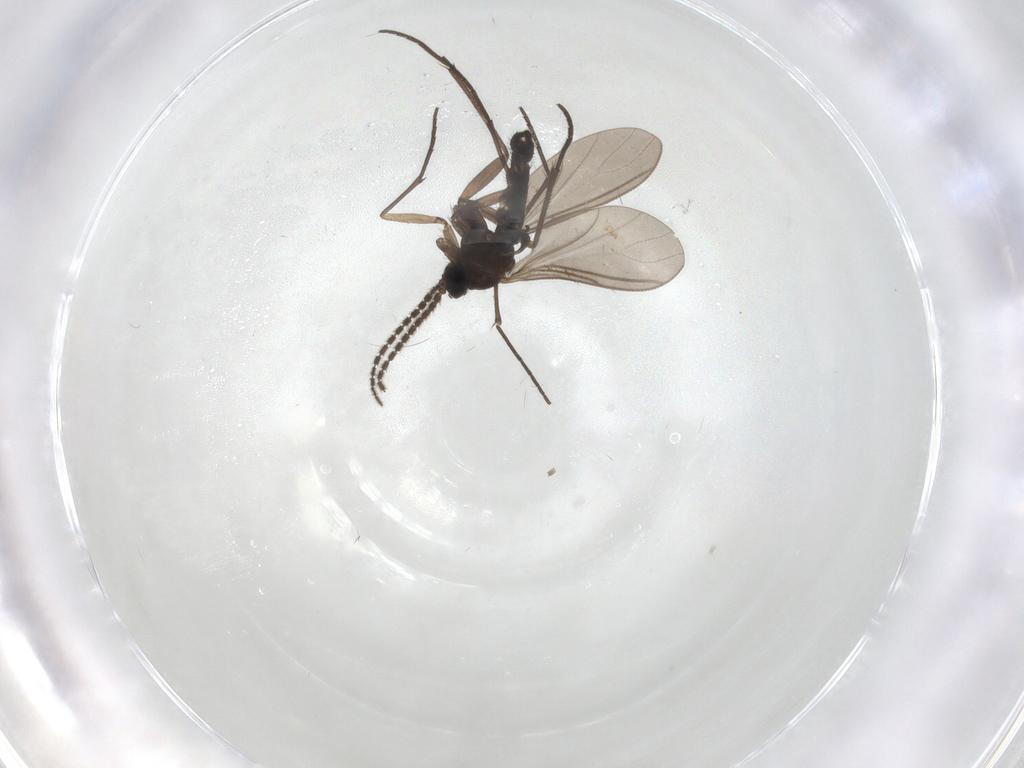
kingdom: Animalia
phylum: Arthropoda
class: Insecta
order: Diptera
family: Sciaridae
